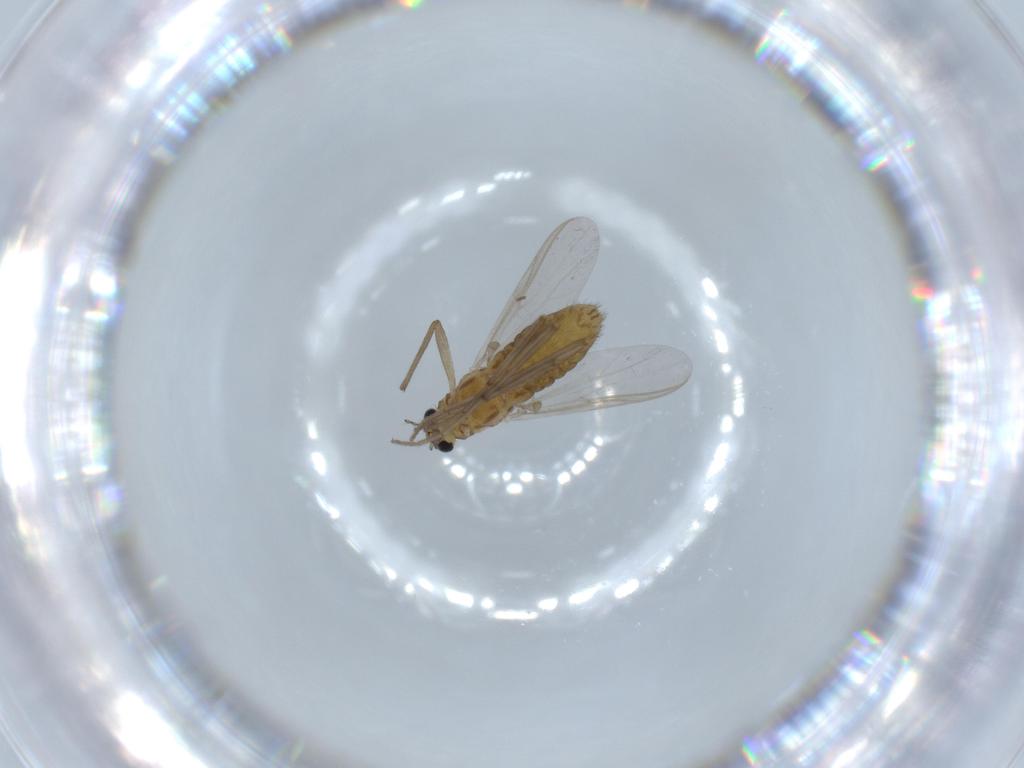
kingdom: Animalia
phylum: Arthropoda
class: Insecta
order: Diptera
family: Chironomidae
